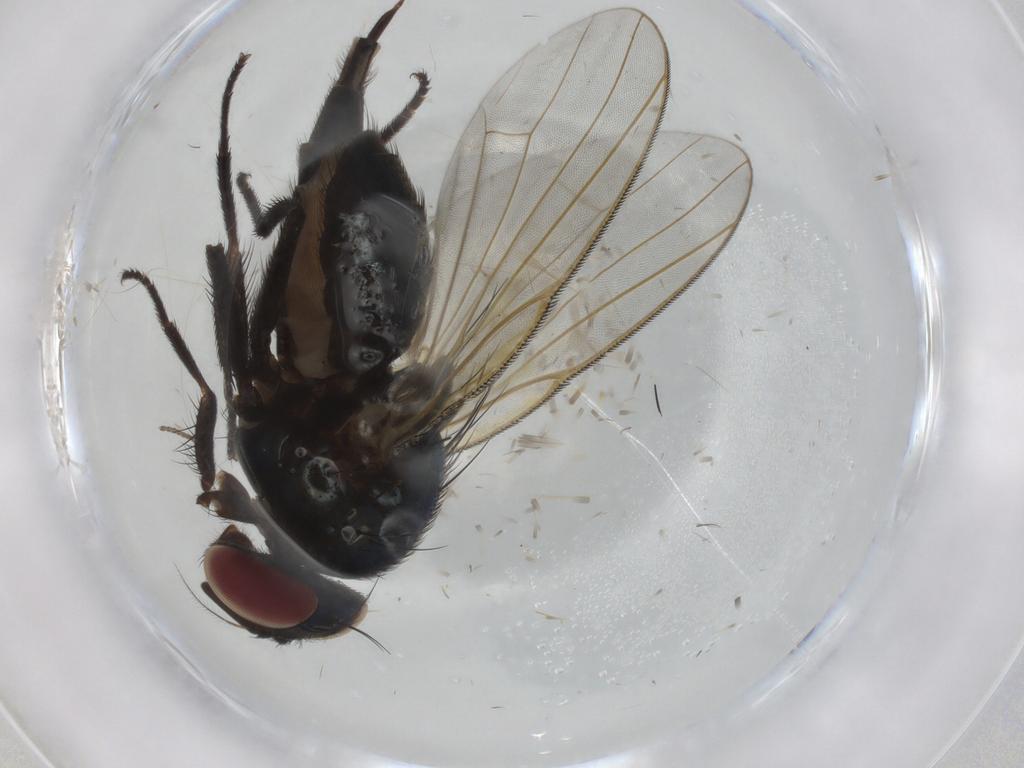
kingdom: Animalia
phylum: Arthropoda
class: Insecta
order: Diptera
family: Lonchaeidae
